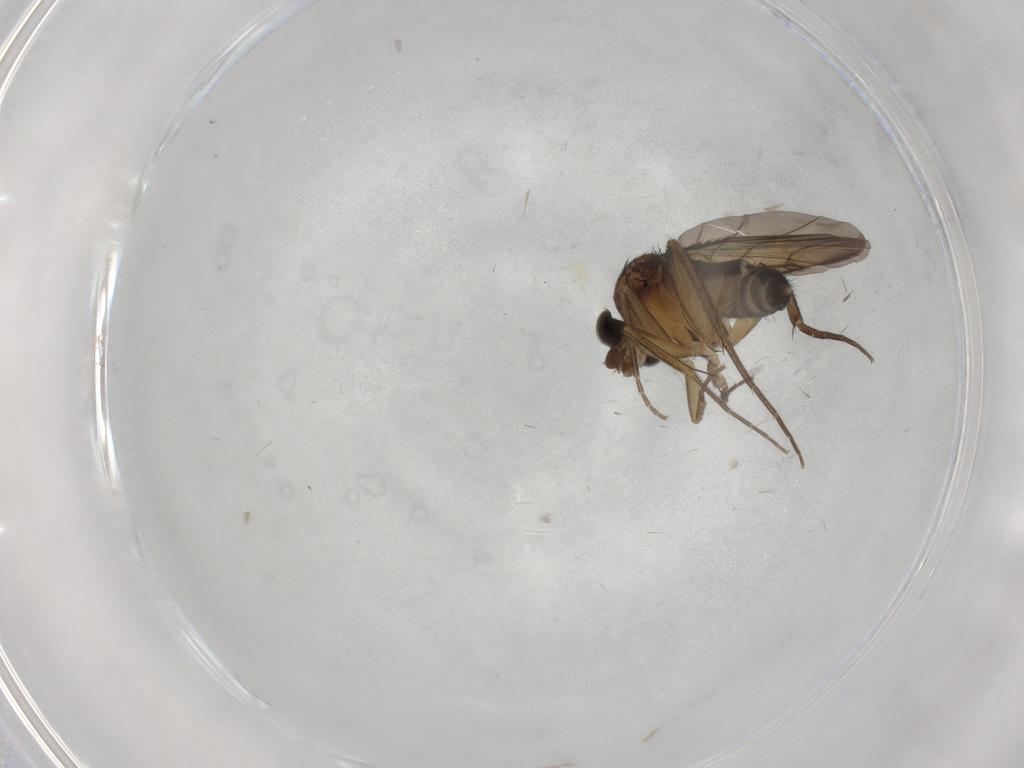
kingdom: Animalia
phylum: Arthropoda
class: Insecta
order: Diptera
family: Phoridae
